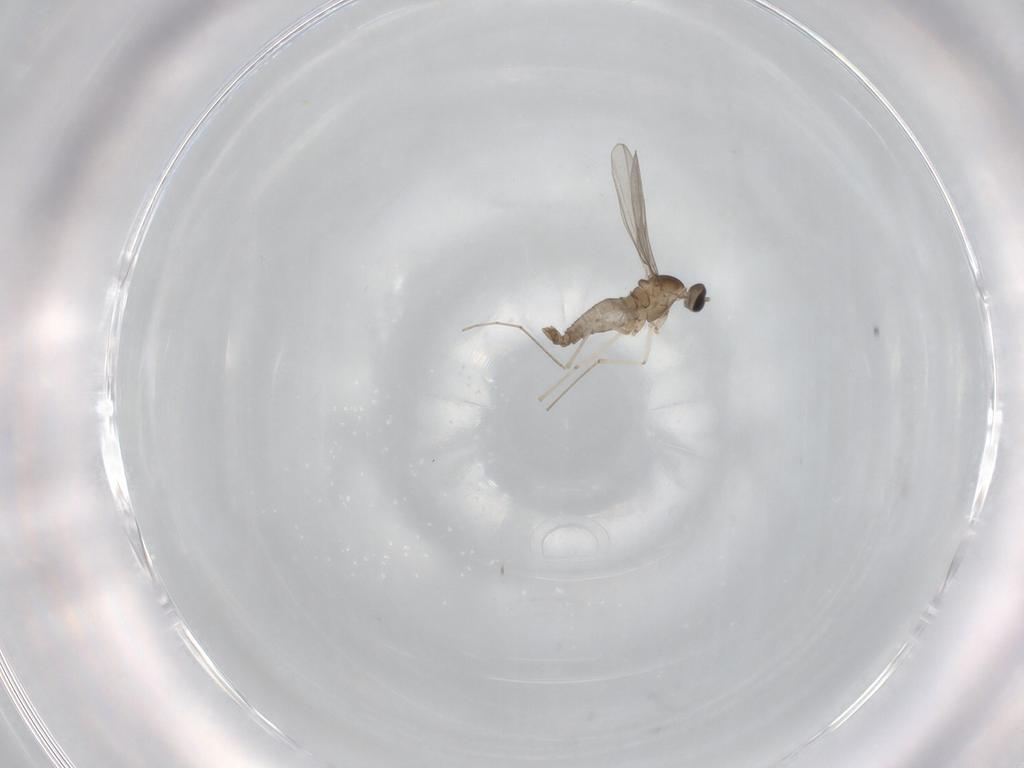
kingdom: Animalia
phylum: Arthropoda
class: Insecta
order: Diptera
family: Cecidomyiidae
